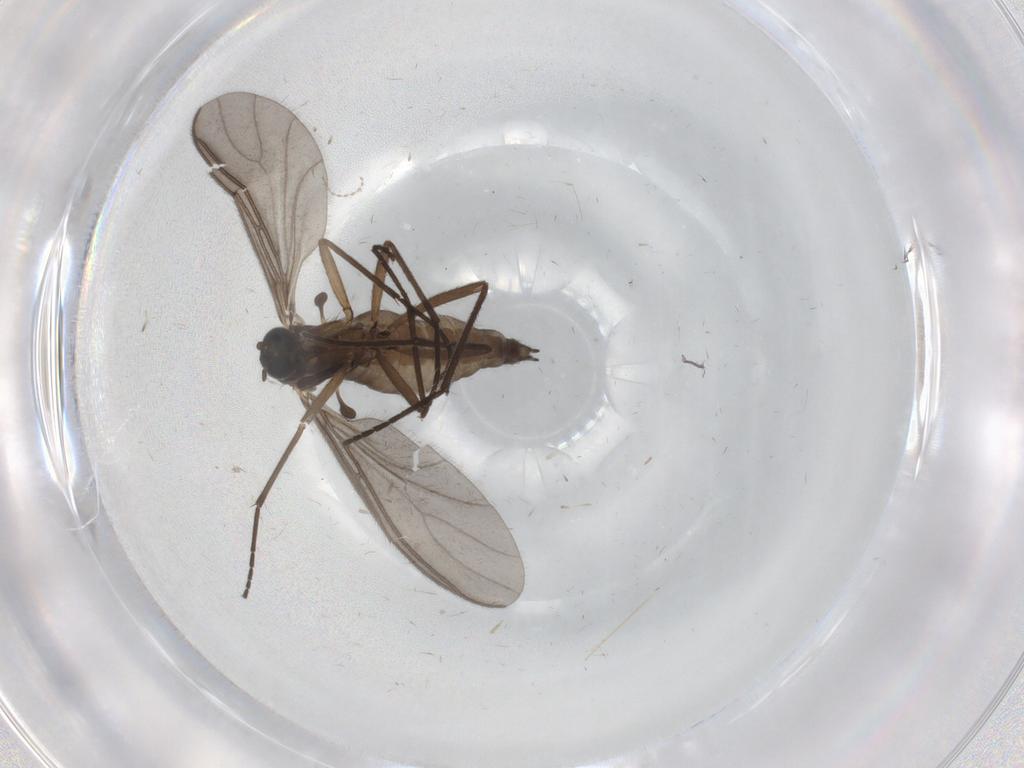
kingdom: Animalia
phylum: Arthropoda
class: Insecta
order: Diptera
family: Sciaridae
